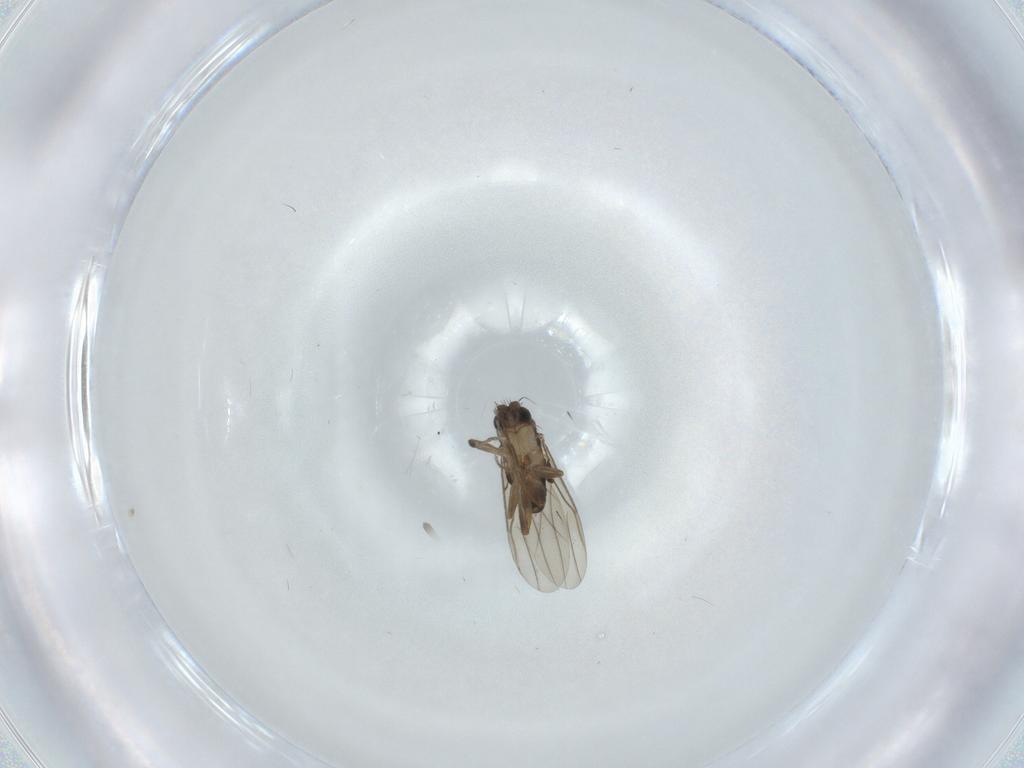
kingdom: Animalia
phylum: Arthropoda
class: Insecta
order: Diptera
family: Chironomidae
